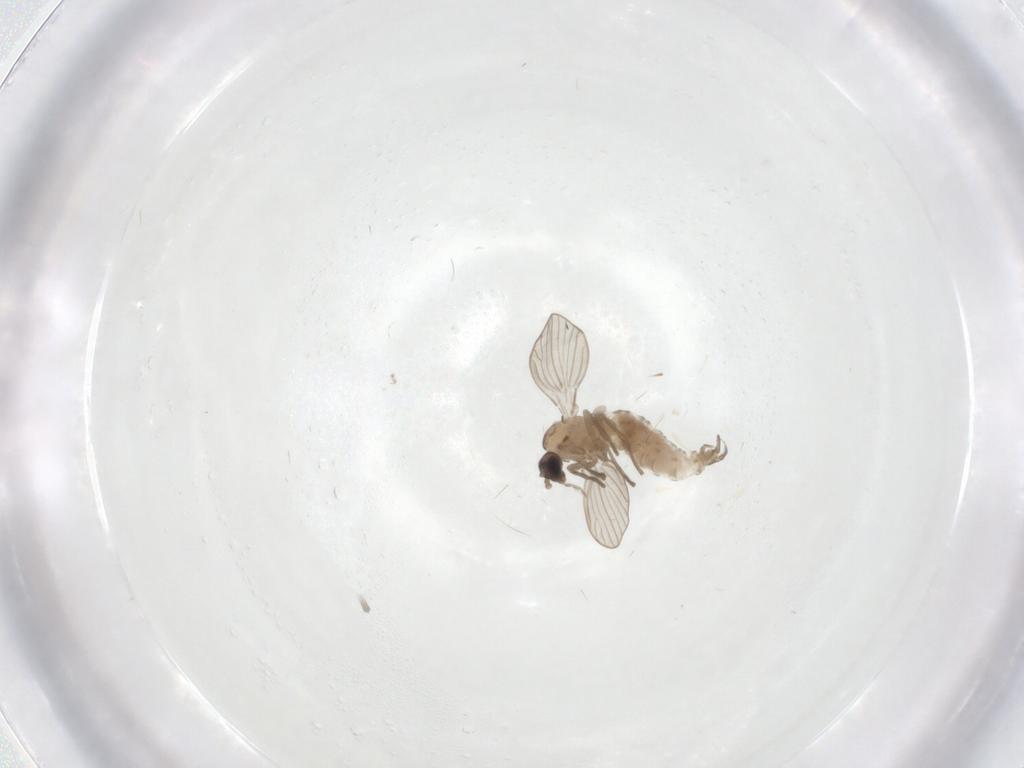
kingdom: Animalia
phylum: Arthropoda
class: Insecta
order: Diptera
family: Psychodidae
